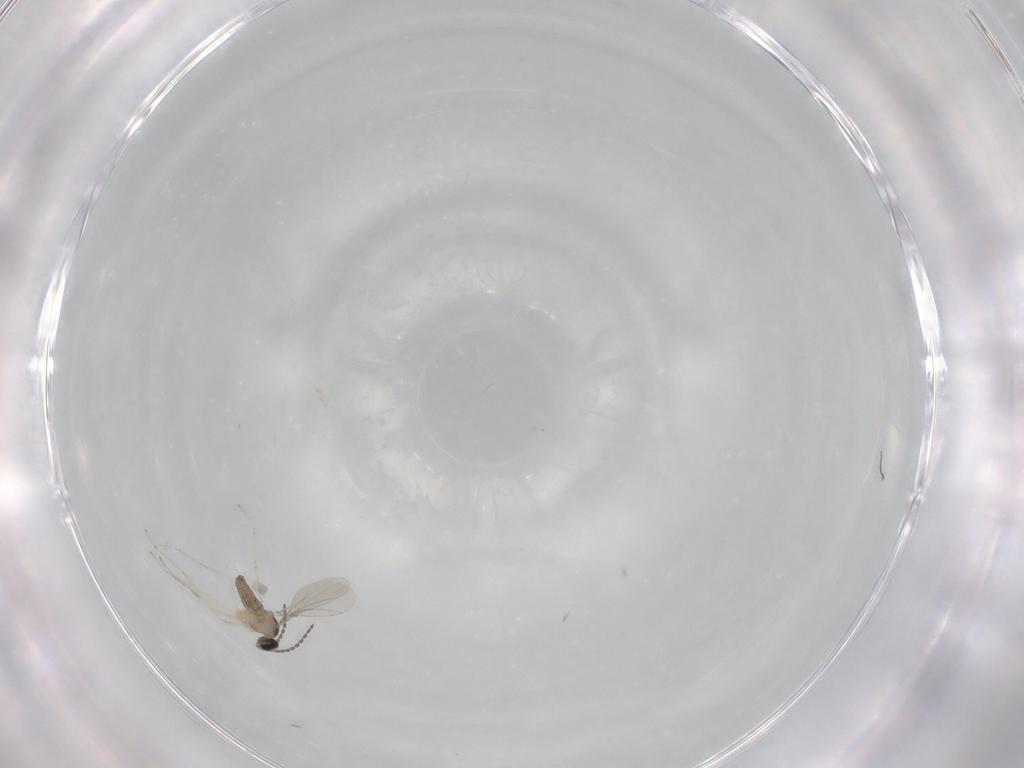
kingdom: Animalia
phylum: Arthropoda
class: Insecta
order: Diptera
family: Cecidomyiidae
